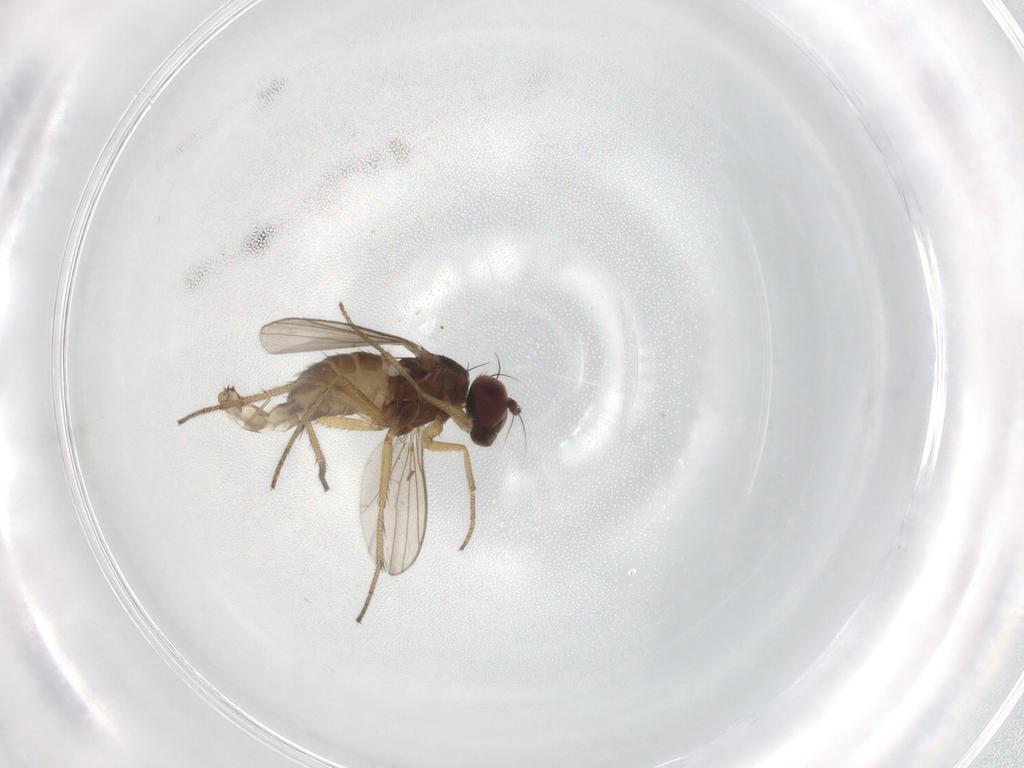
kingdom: Animalia
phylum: Arthropoda
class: Insecta
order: Diptera
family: Dolichopodidae
